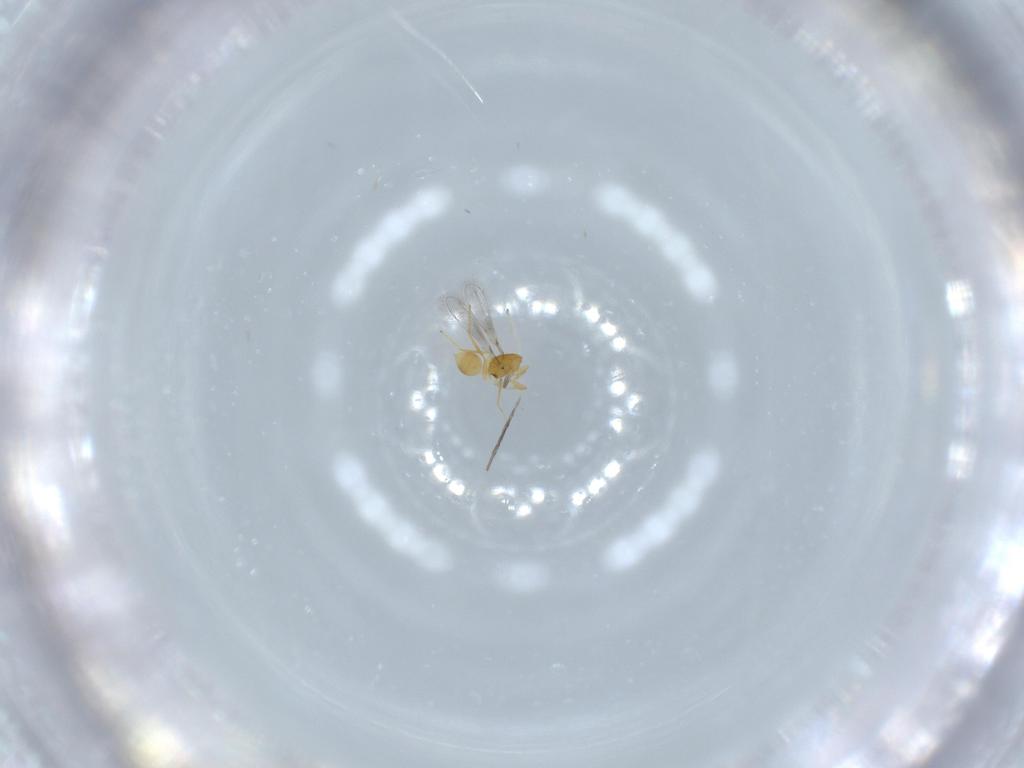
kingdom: Animalia
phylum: Arthropoda
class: Insecta
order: Hymenoptera
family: Mymaridae
